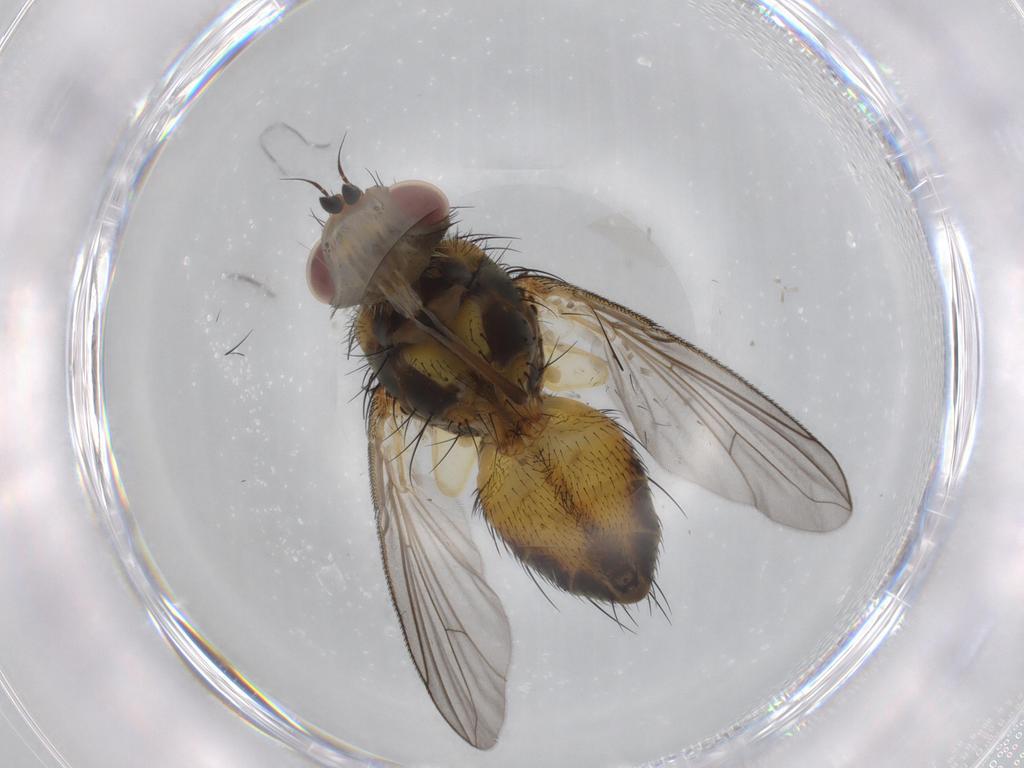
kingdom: Animalia
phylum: Arthropoda
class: Insecta
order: Diptera
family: Tachinidae
